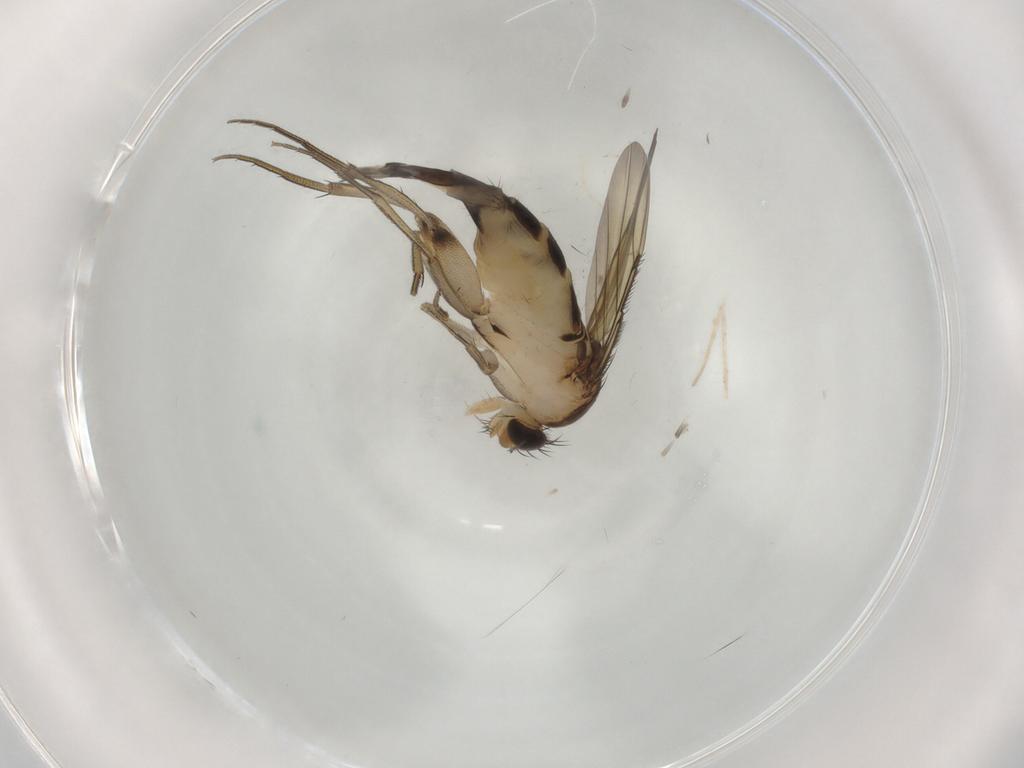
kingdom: Animalia
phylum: Arthropoda
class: Insecta
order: Diptera
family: Phoridae
